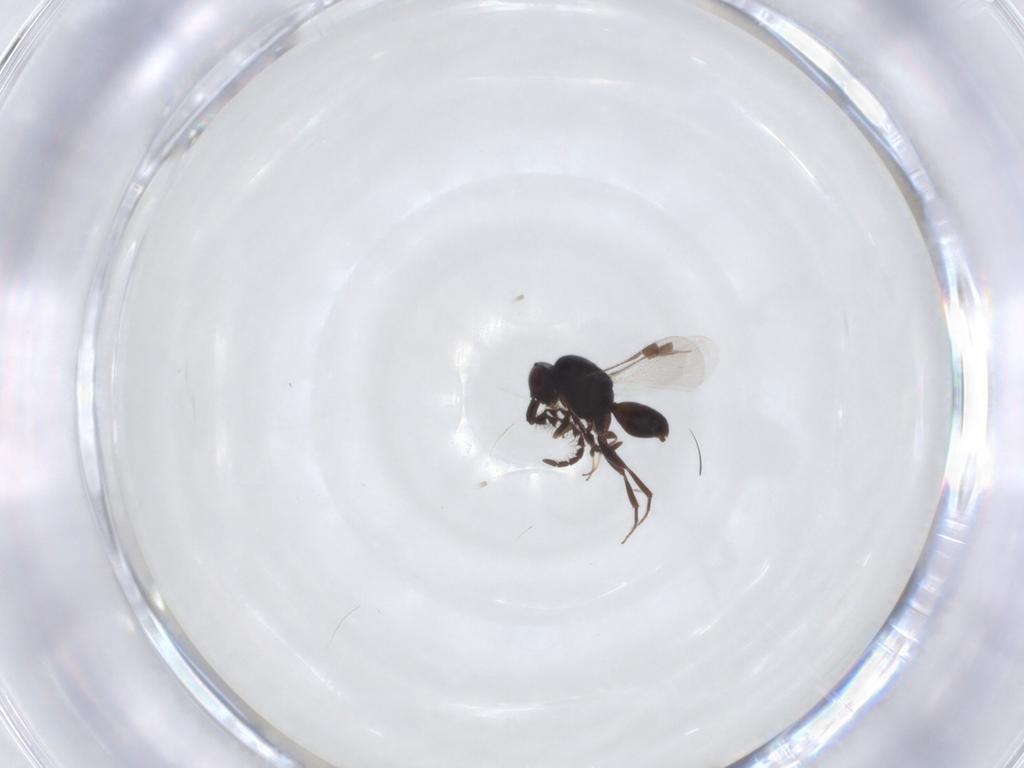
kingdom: Animalia
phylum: Arthropoda
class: Insecta
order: Hymenoptera
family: Megaspilidae
